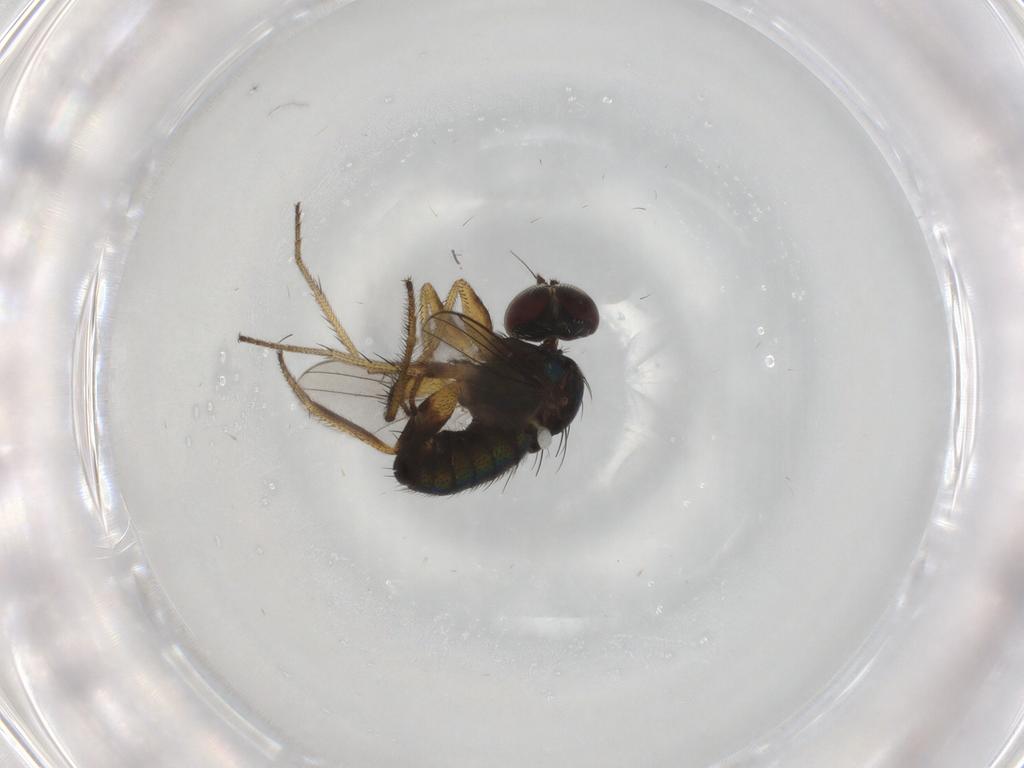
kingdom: Animalia
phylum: Arthropoda
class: Insecta
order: Diptera
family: Dolichopodidae
